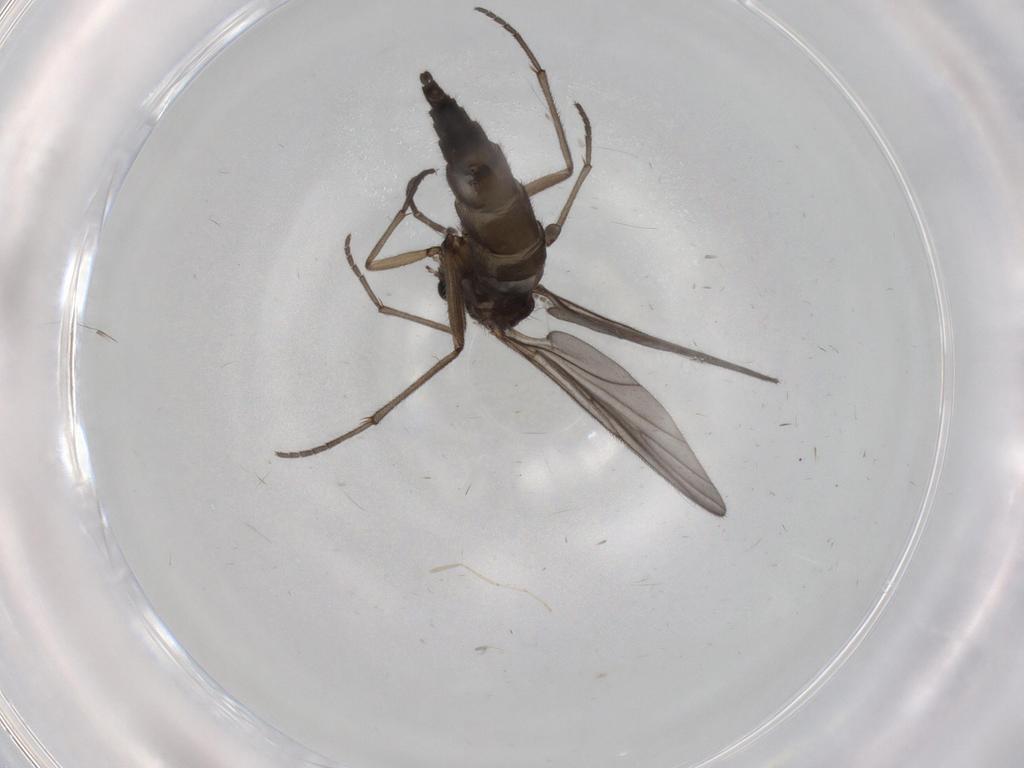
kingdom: Animalia
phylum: Arthropoda
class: Insecta
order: Diptera
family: Sciaridae
